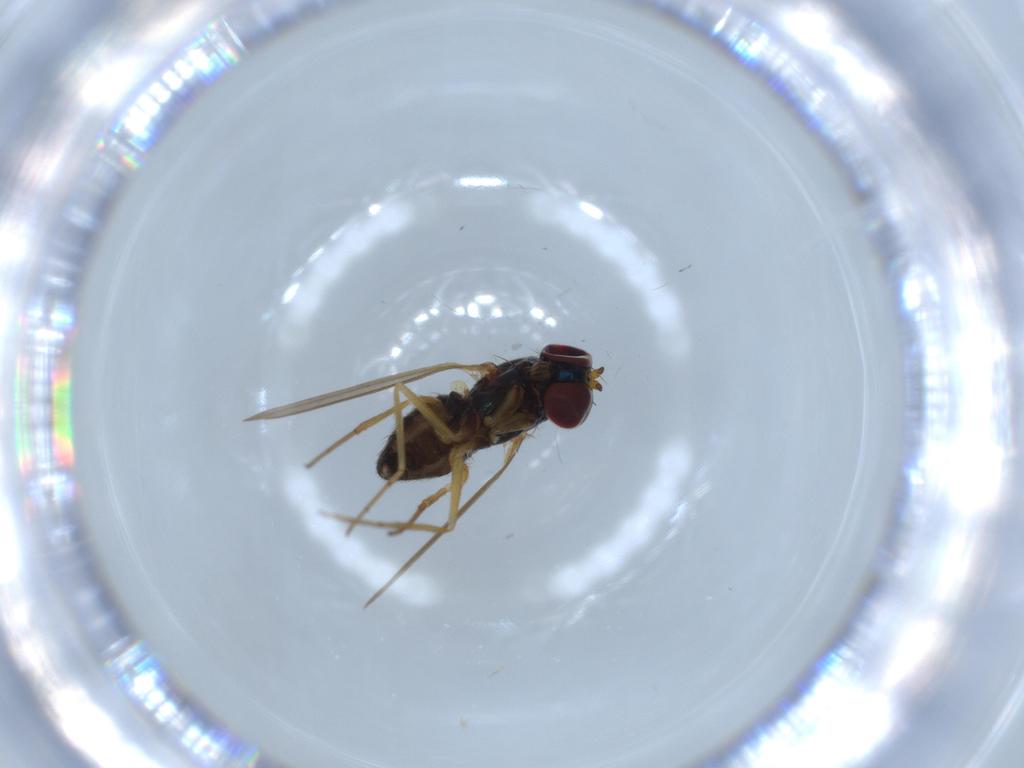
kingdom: Animalia
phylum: Arthropoda
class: Insecta
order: Diptera
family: Dolichopodidae
